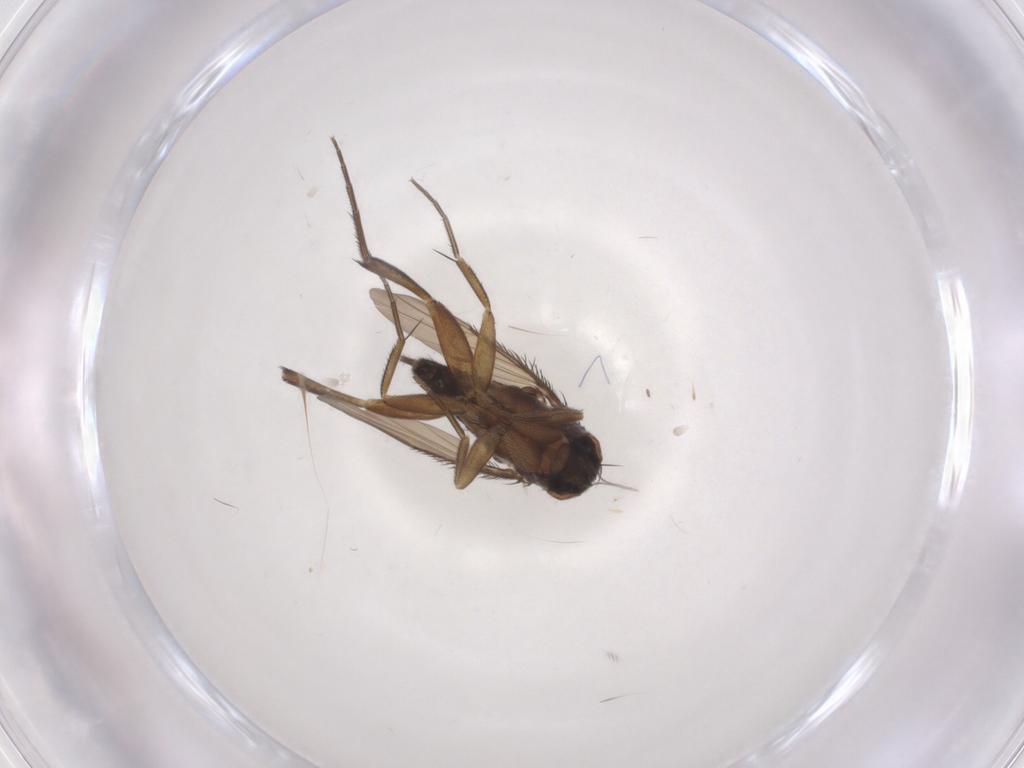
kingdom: Animalia
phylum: Arthropoda
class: Insecta
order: Diptera
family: Phoridae
